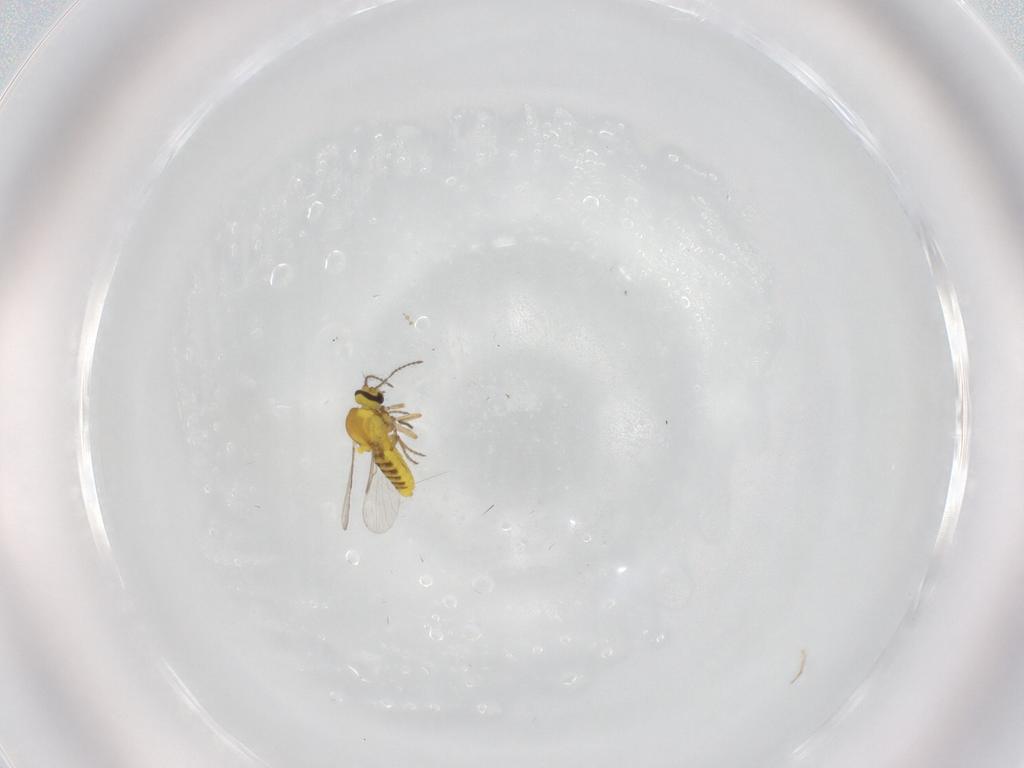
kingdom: Animalia
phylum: Arthropoda
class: Insecta
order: Diptera
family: Ceratopogonidae
